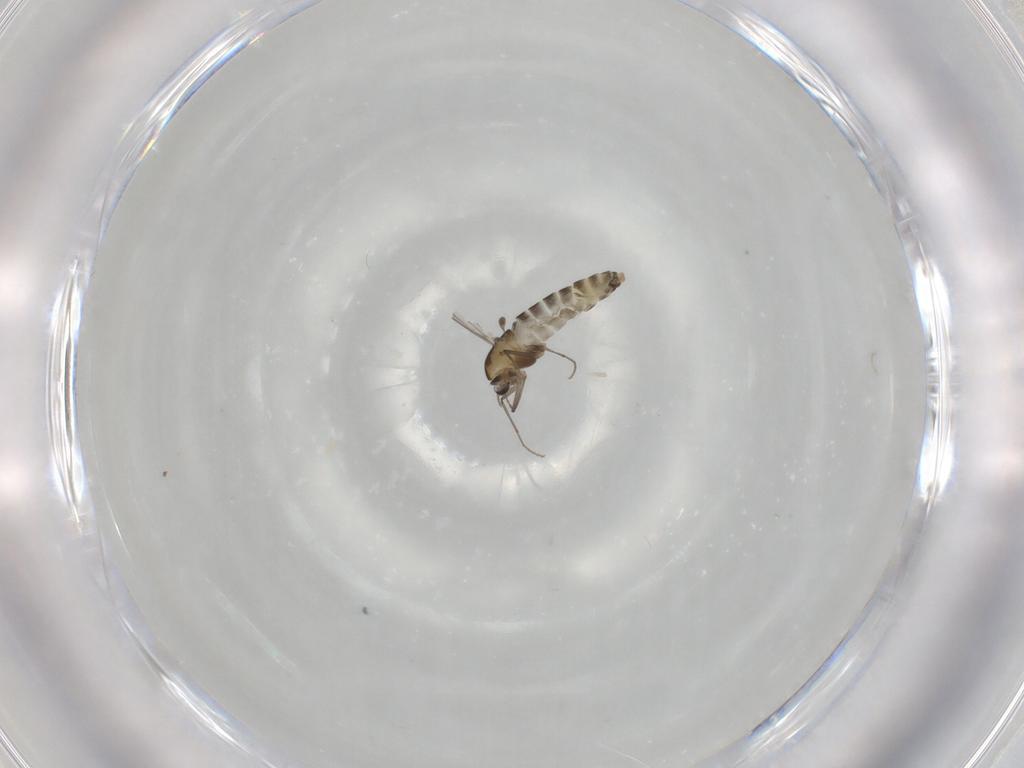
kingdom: Animalia
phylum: Arthropoda
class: Insecta
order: Diptera
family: Chironomidae
